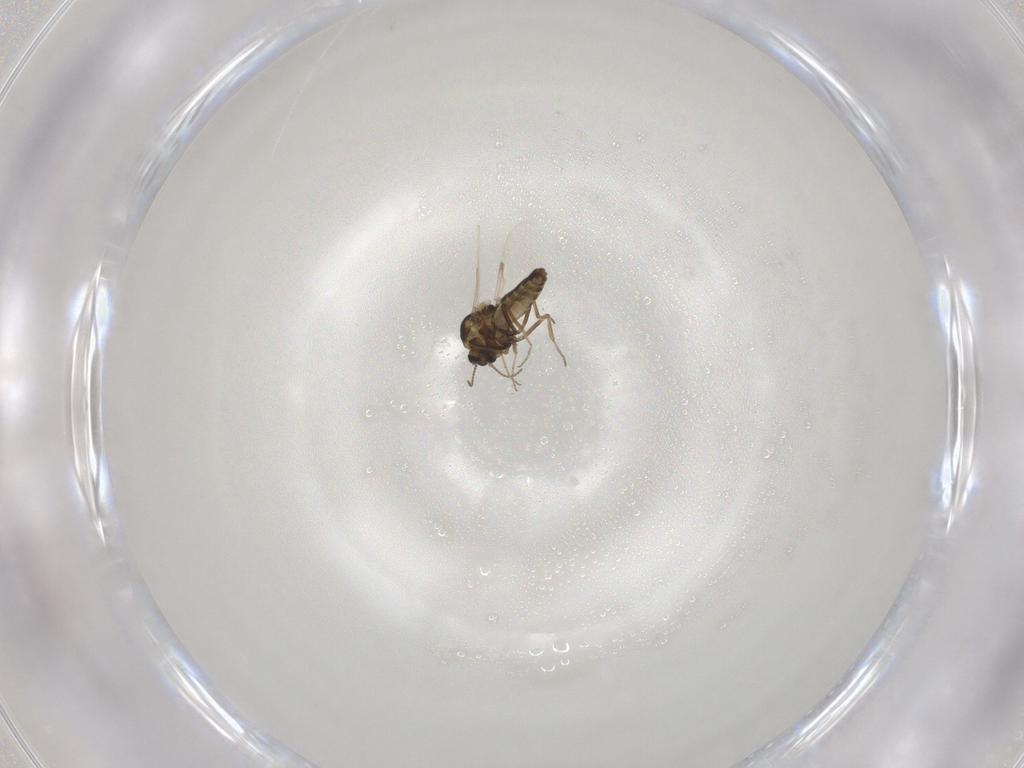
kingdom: Animalia
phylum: Arthropoda
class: Insecta
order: Diptera
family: Ceratopogonidae
